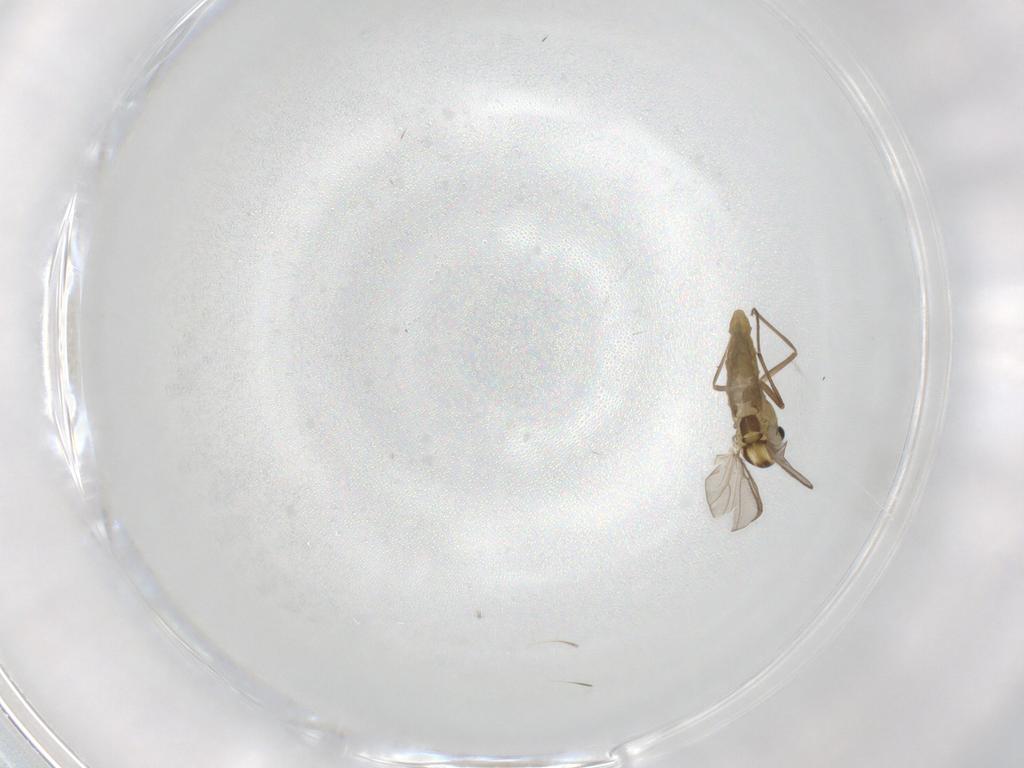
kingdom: Animalia
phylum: Arthropoda
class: Insecta
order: Diptera
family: Chironomidae
